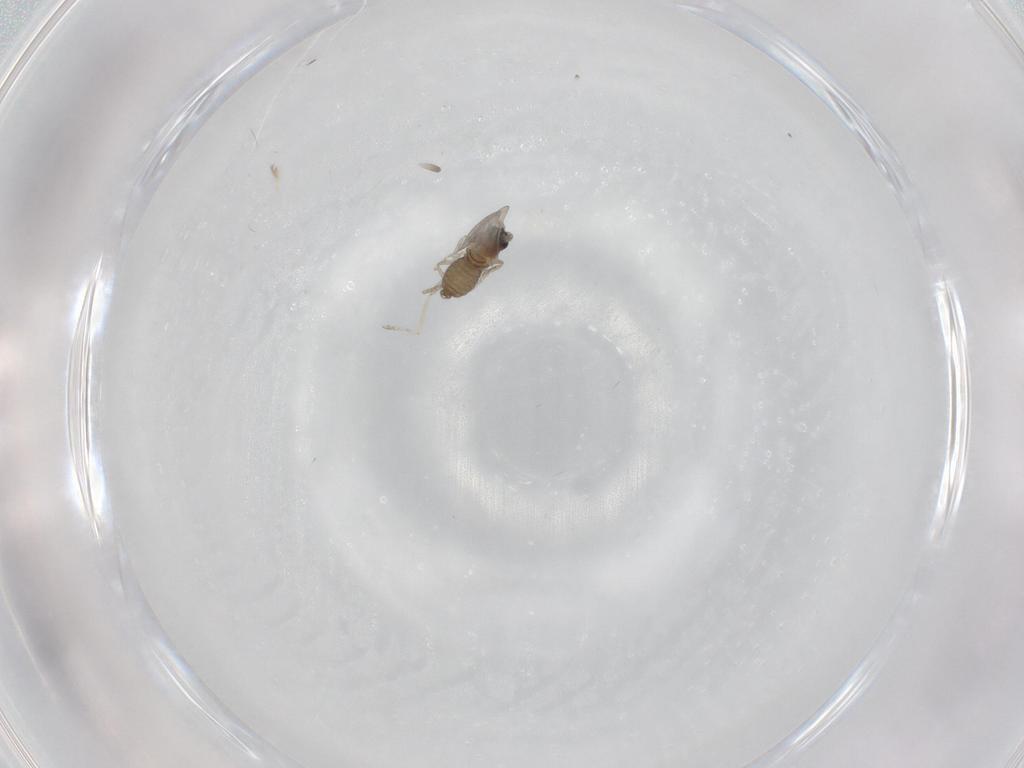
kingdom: Animalia
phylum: Arthropoda
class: Insecta
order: Diptera
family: Cecidomyiidae
